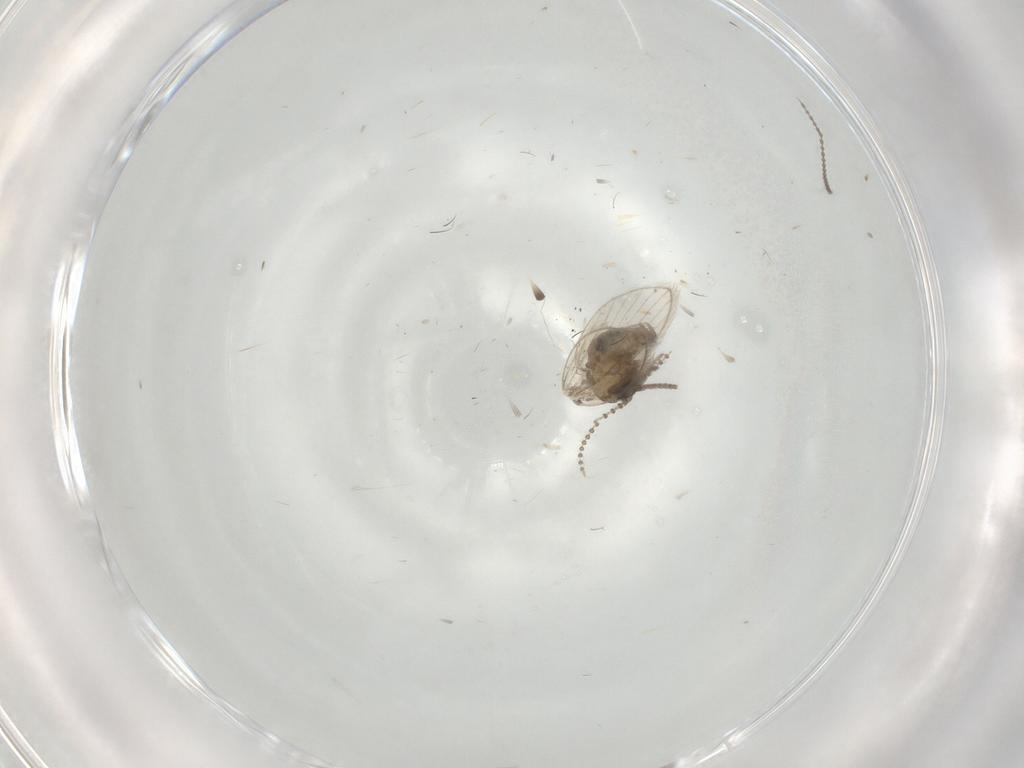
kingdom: Animalia
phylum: Arthropoda
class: Insecta
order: Diptera
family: Cecidomyiidae
